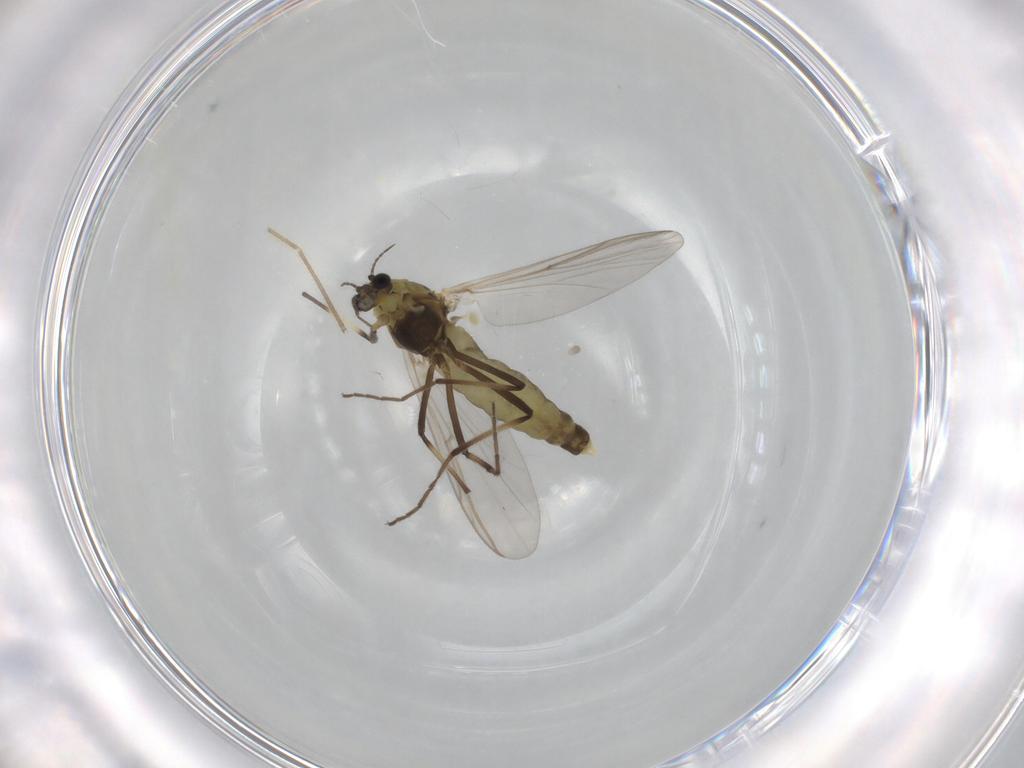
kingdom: Animalia
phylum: Arthropoda
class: Insecta
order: Diptera
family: Chironomidae
